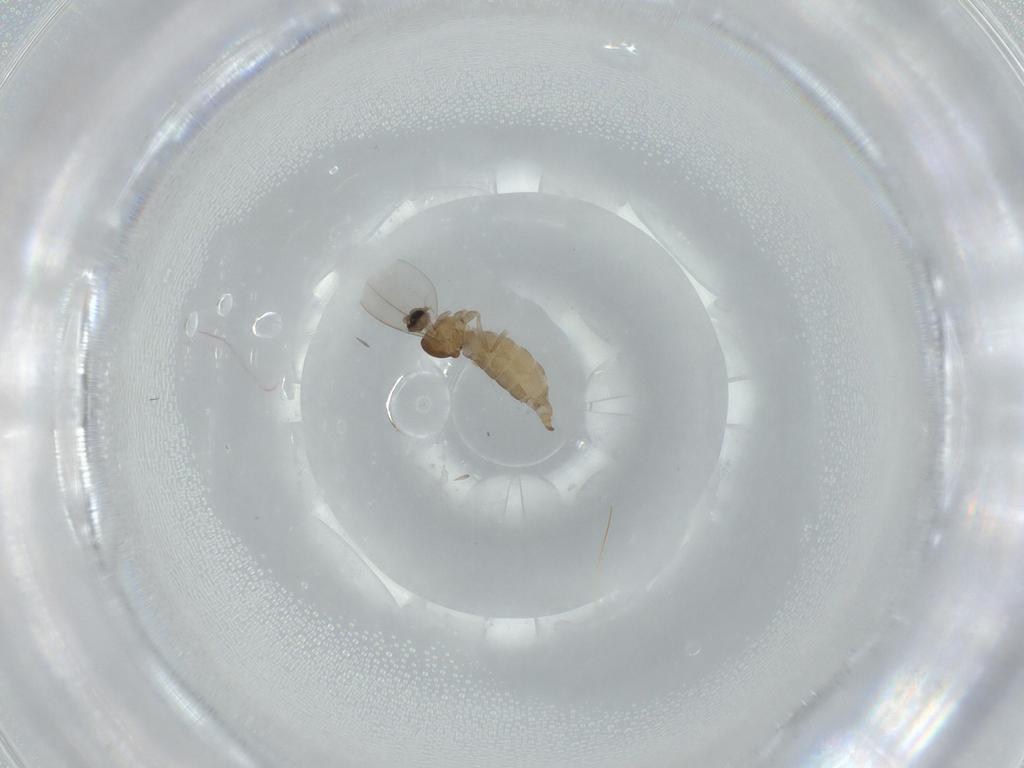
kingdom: Animalia
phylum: Arthropoda
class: Insecta
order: Diptera
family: Cecidomyiidae
